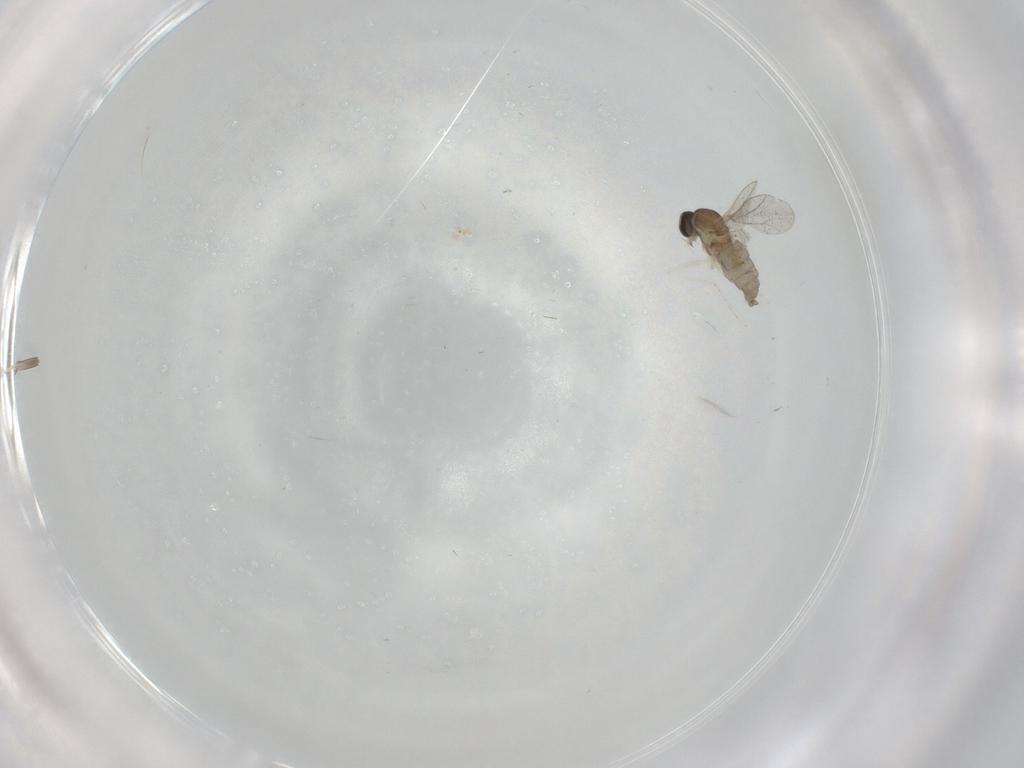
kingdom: Animalia
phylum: Arthropoda
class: Insecta
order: Diptera
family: Cecidomyiidae
